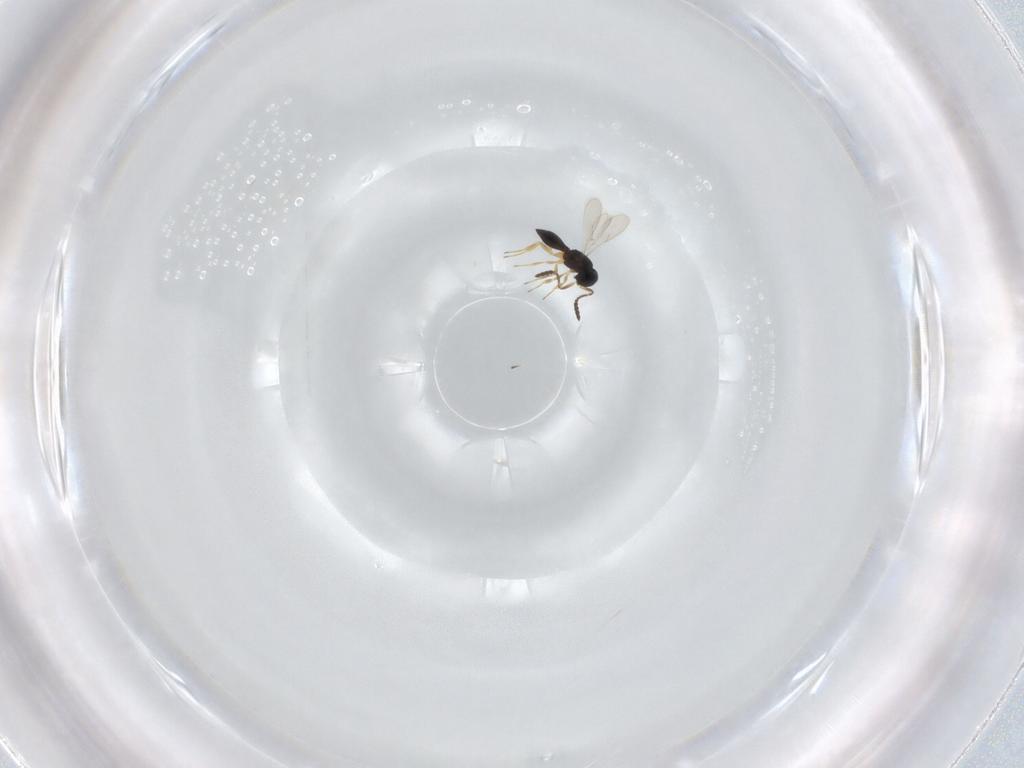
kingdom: Animalia
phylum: Arthropoda
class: Insecta
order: Hymenoptera
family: Scelionidae
